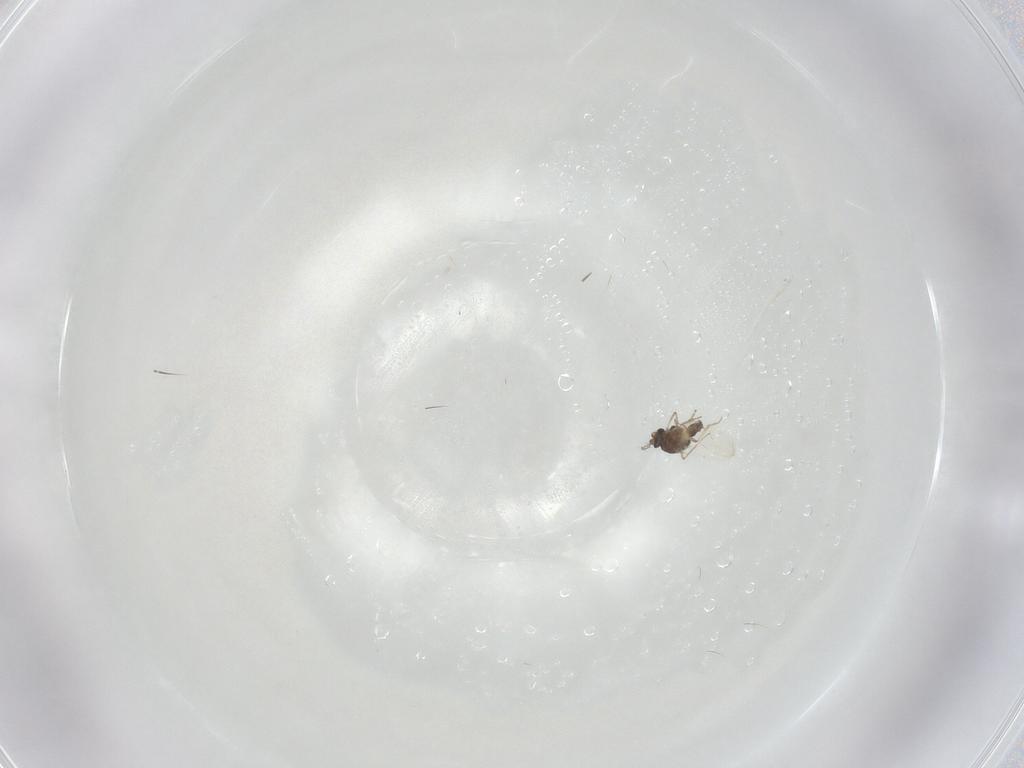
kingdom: Animalia
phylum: Arthropoda
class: Insecta
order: Diptera
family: Ceratopogonidae
